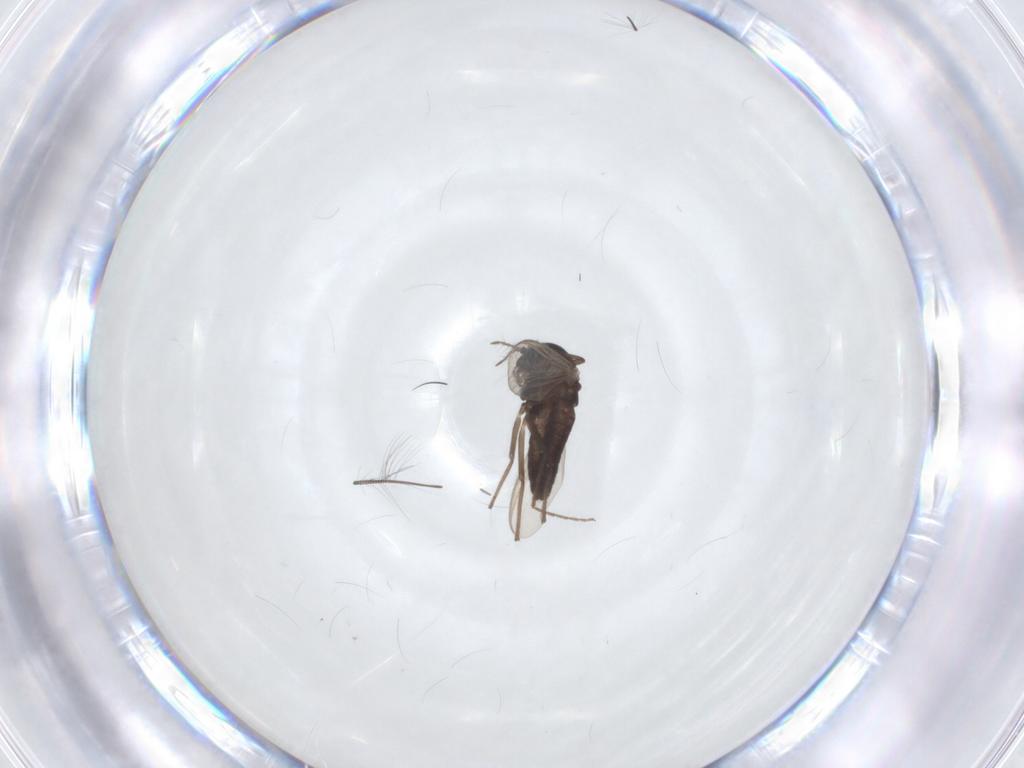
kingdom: Animalia
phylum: Arthropoda
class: Insecta
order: Diptera
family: Chironomidae
